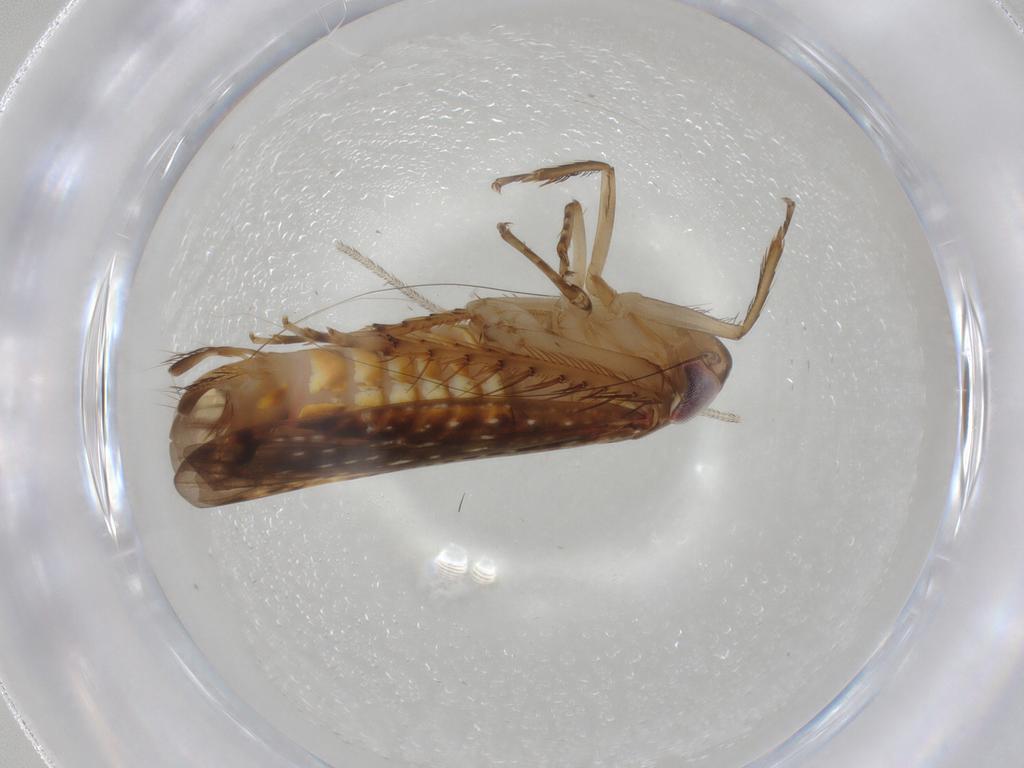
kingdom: Animalia
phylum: Arthropoda
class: Insecta
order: Hemiptera
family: Cicadellidae
